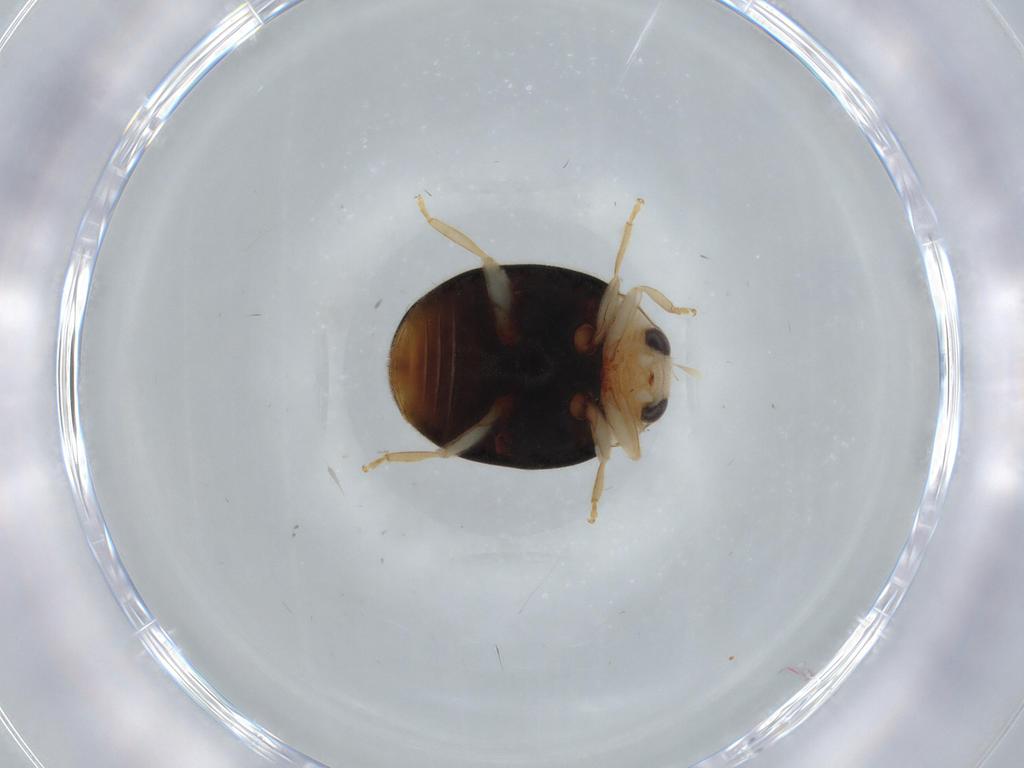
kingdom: Animalia
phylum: Arthropoda
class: Insecta
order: Coleoptera
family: Coccinellidae
